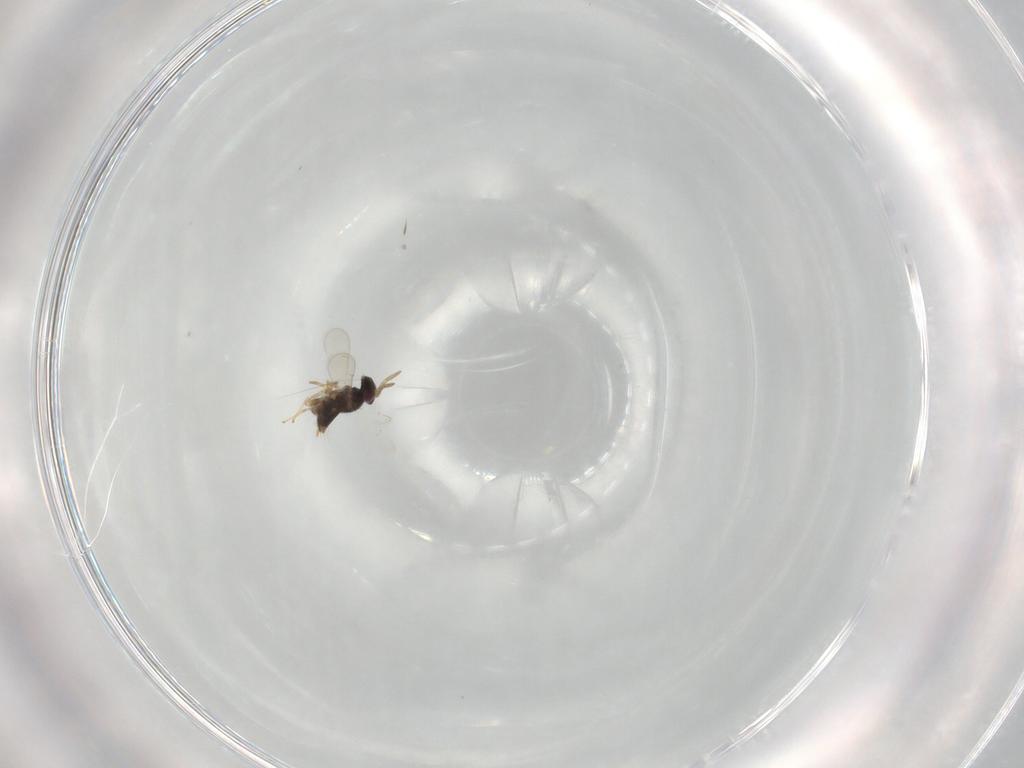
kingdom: Animalia
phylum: Arthropoda
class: Insecta
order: Hymenoptera
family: Aphelinidae
